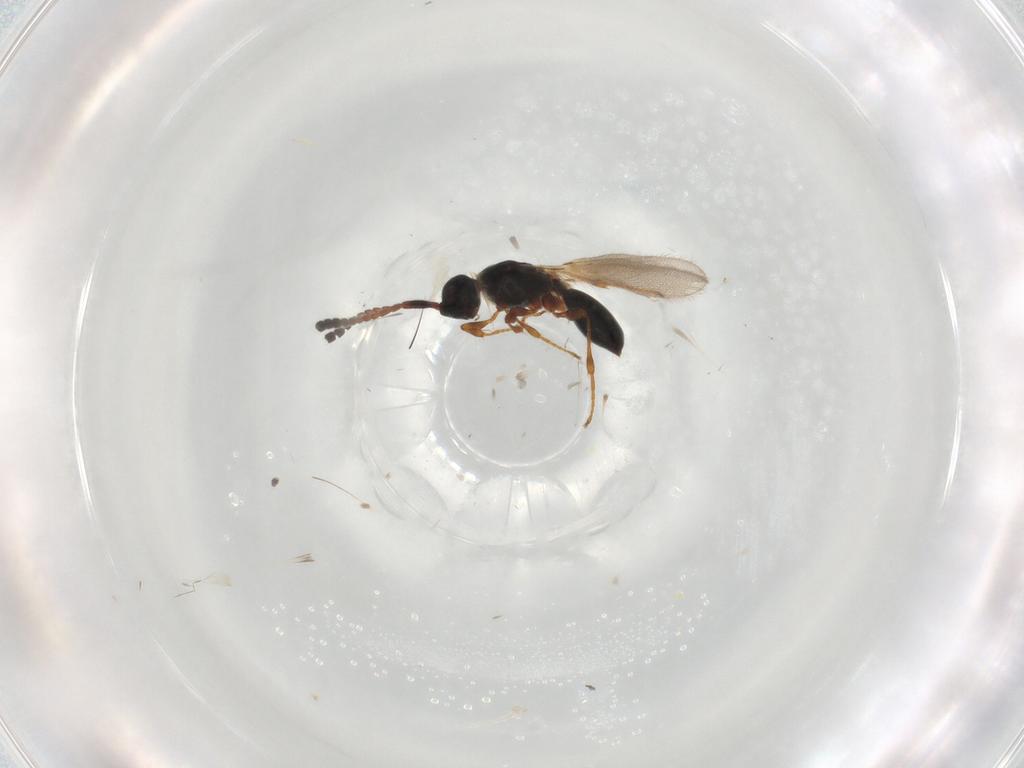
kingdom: Animalia
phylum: Arthropoda
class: Insecta
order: Hymenoptera
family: Diapriidae
